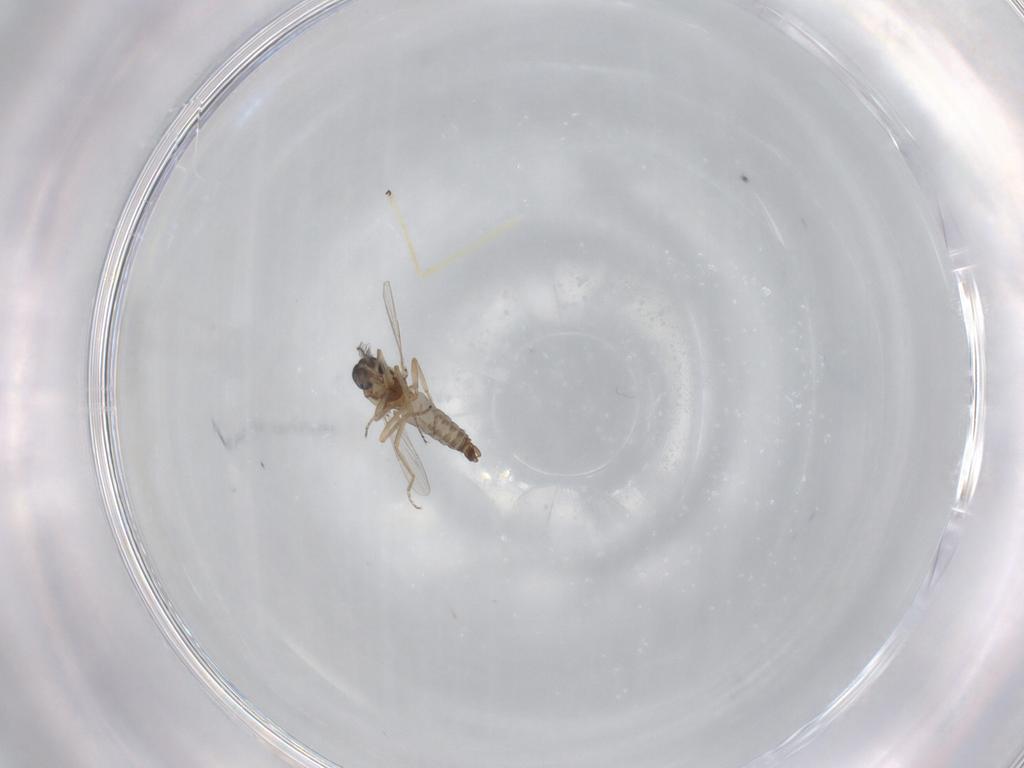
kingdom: Animalia
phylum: Arthropoda
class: Insecta
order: Diptera
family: Ceratopogonidae
